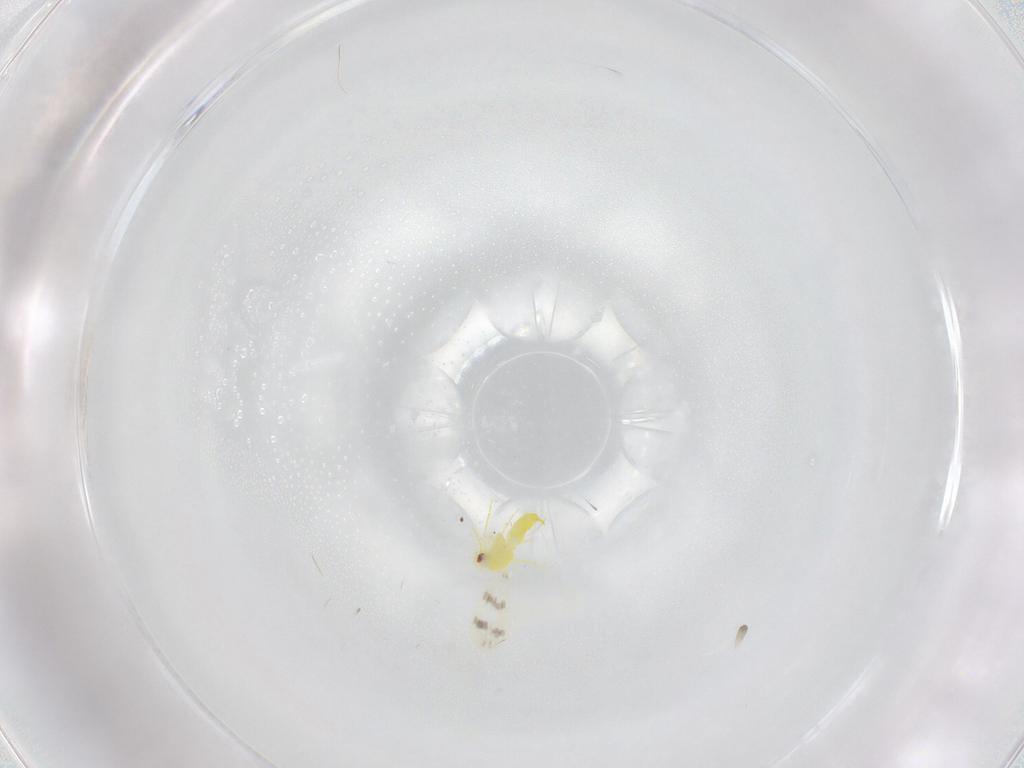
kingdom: Animalia
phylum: Arthropoda
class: Insecta
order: Hemiptera
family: Aleyrodidae
